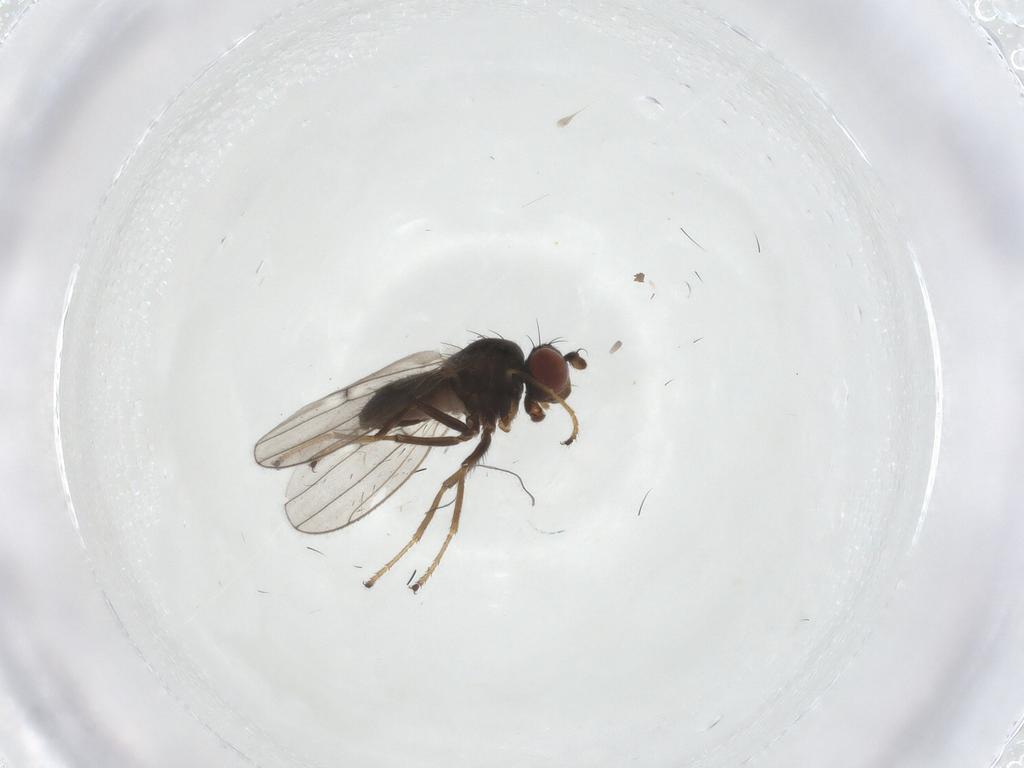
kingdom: Animalia
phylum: Arthropoda
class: Insecta
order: Diptera
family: Ephydridae
